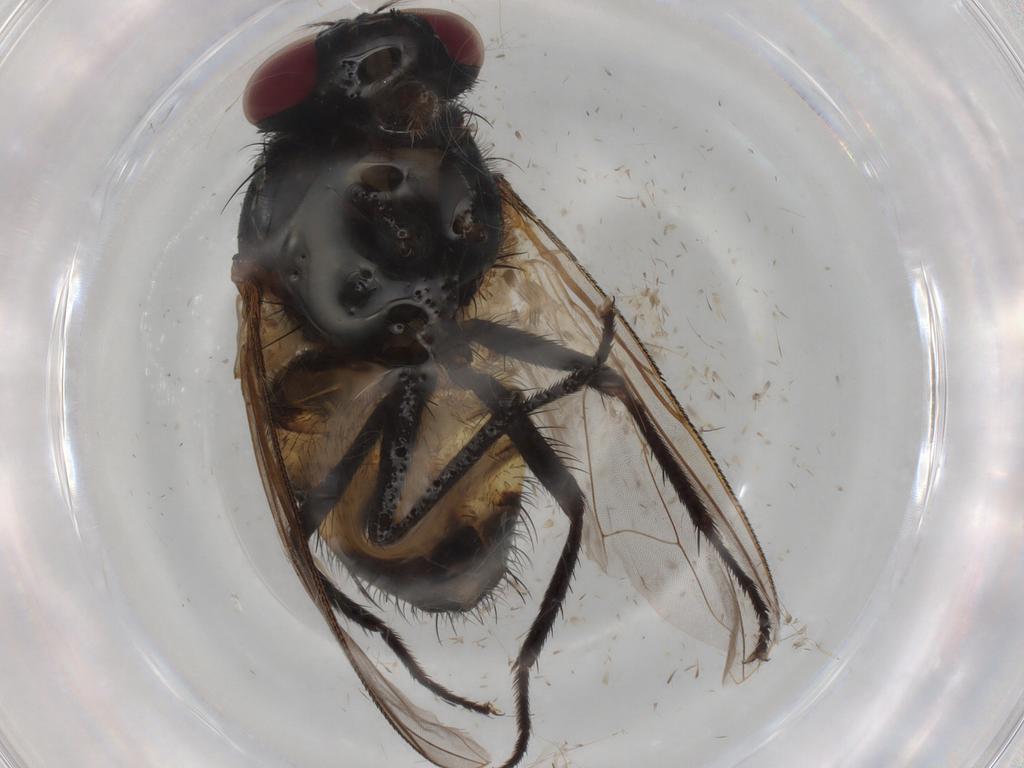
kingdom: Animalia
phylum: Arthropoda
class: Insecta
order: Diptera
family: Muscidae
